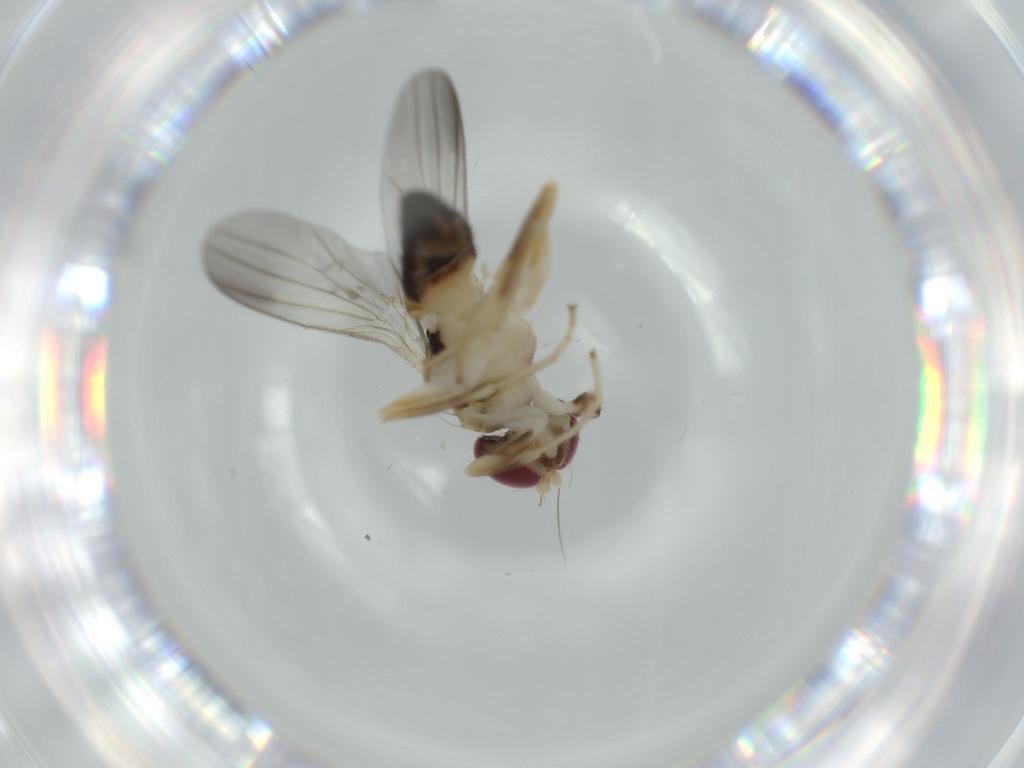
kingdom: Animalia
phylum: Arthropoda
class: Insecta
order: Diptera
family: Clusiidae
